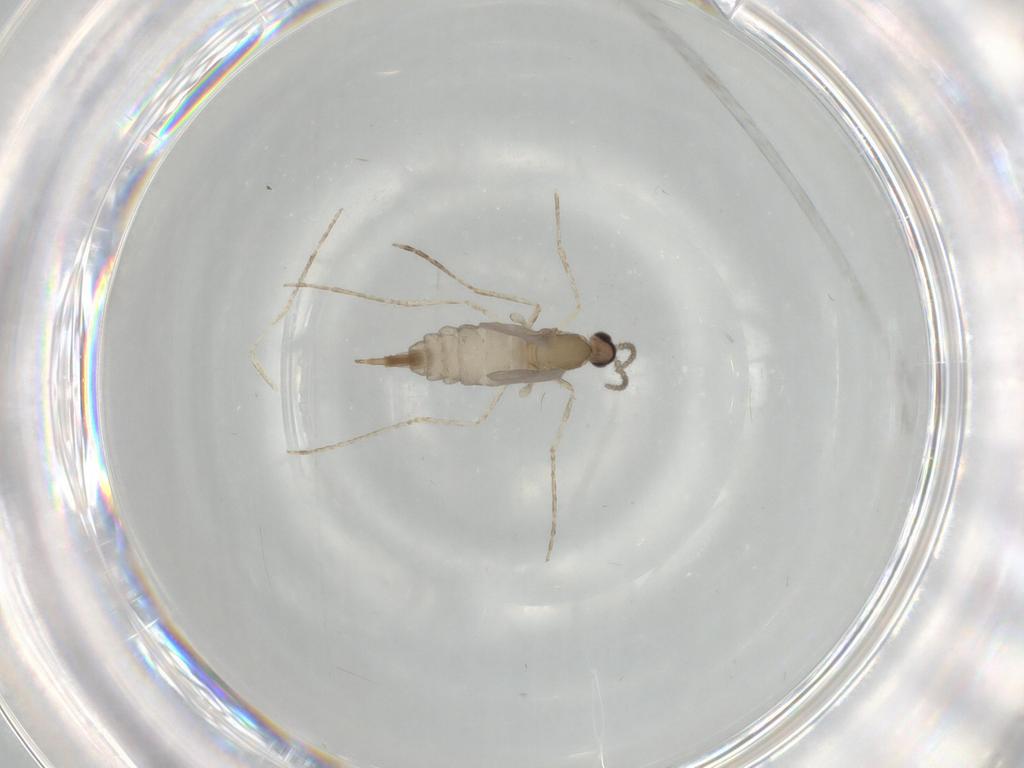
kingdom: Animalia
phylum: Arthropoda
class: Insecta
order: Diptera
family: Cecidomyiidae
